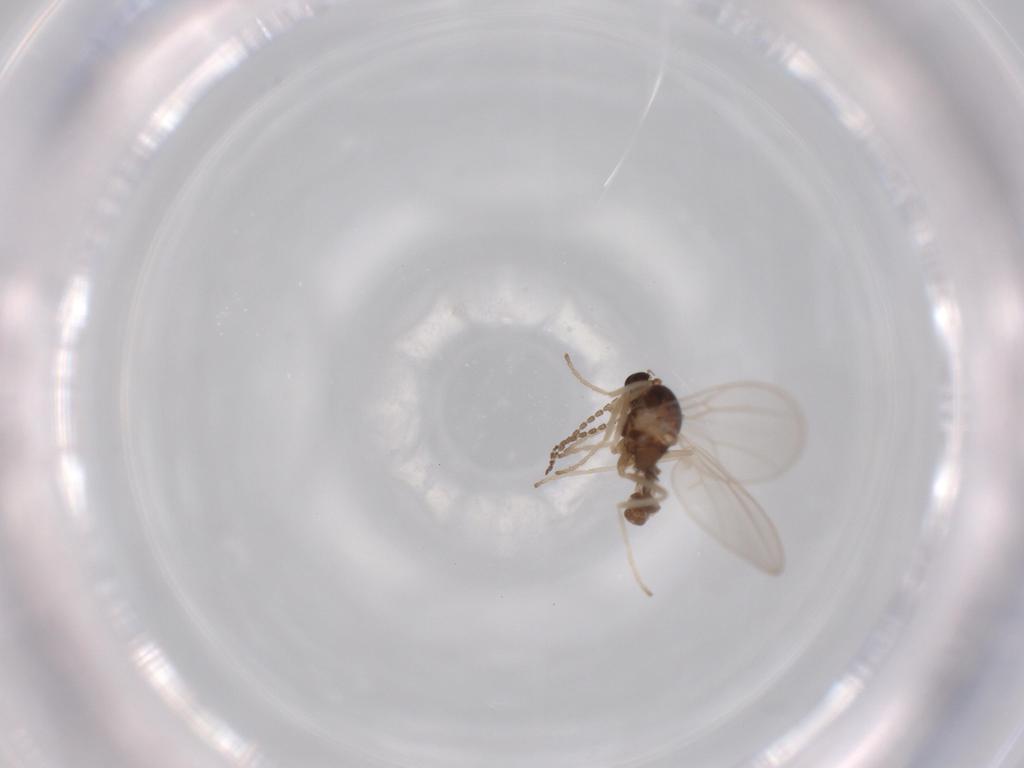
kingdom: Animalia
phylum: Arthropoda
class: Insecta
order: Diptera
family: Cecidomyiidae
